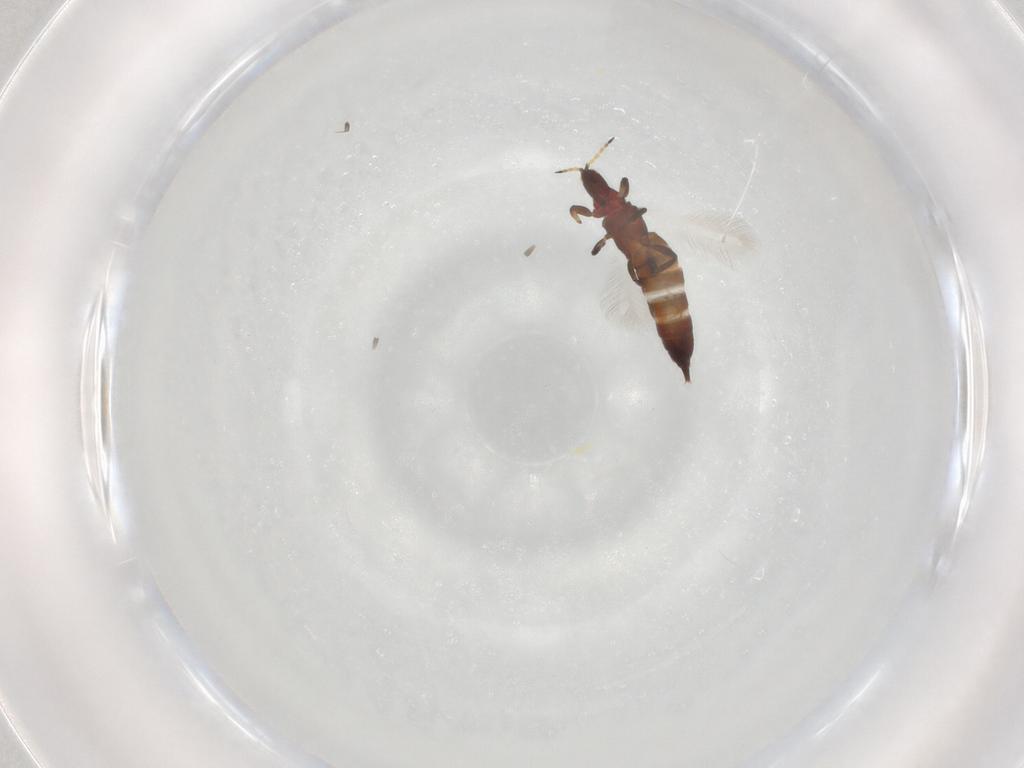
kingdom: Animalia
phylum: Arthropoda
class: Insecta
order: Thysanoptera
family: Phlaeothripidae
